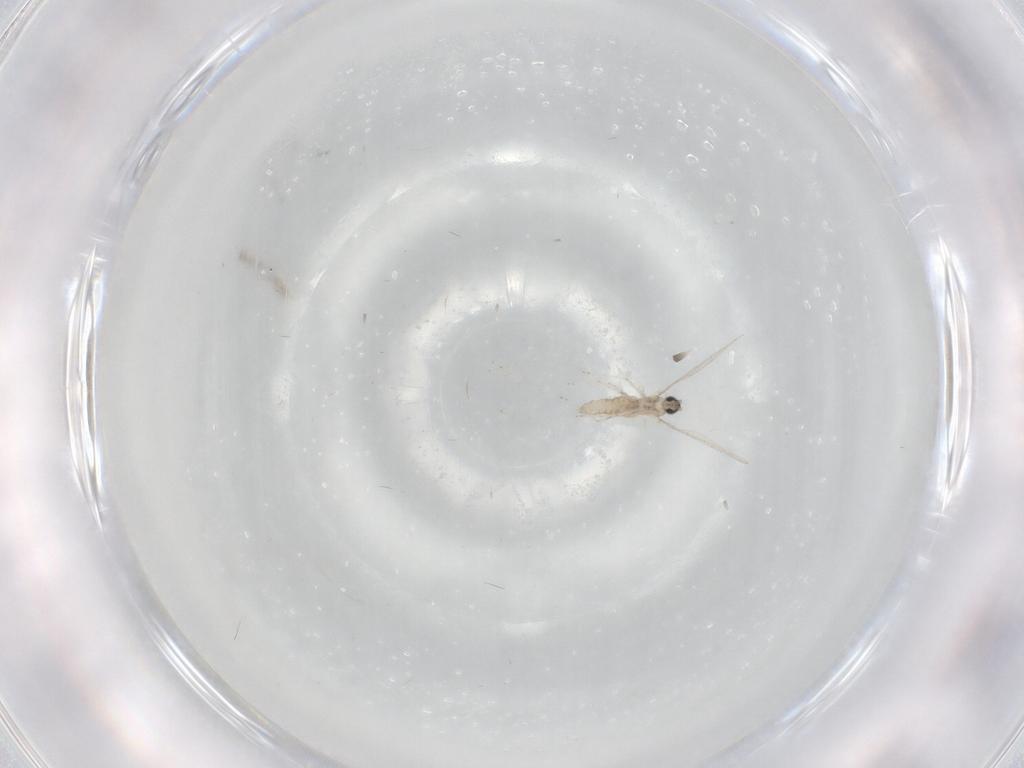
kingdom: Animalia
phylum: Arthropoda
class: Insecta
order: Diptera
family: Cecidomyiidae
